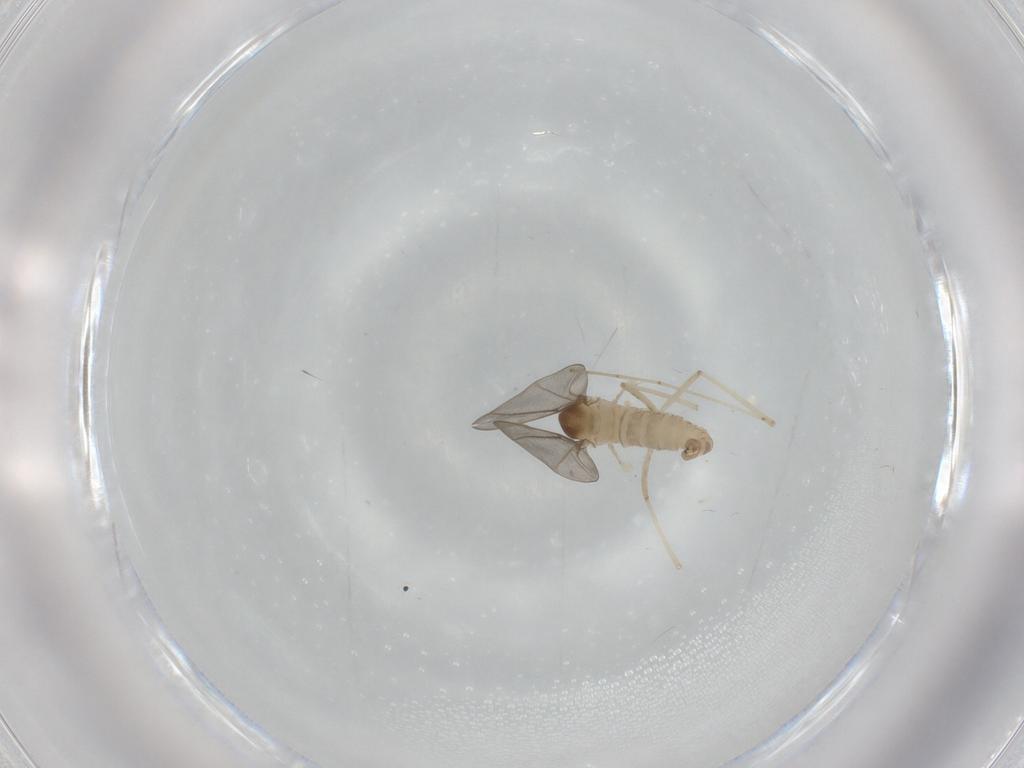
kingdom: Animalia
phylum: Arthropoda
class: Insecta
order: Diptera
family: Cecidomyiidae
